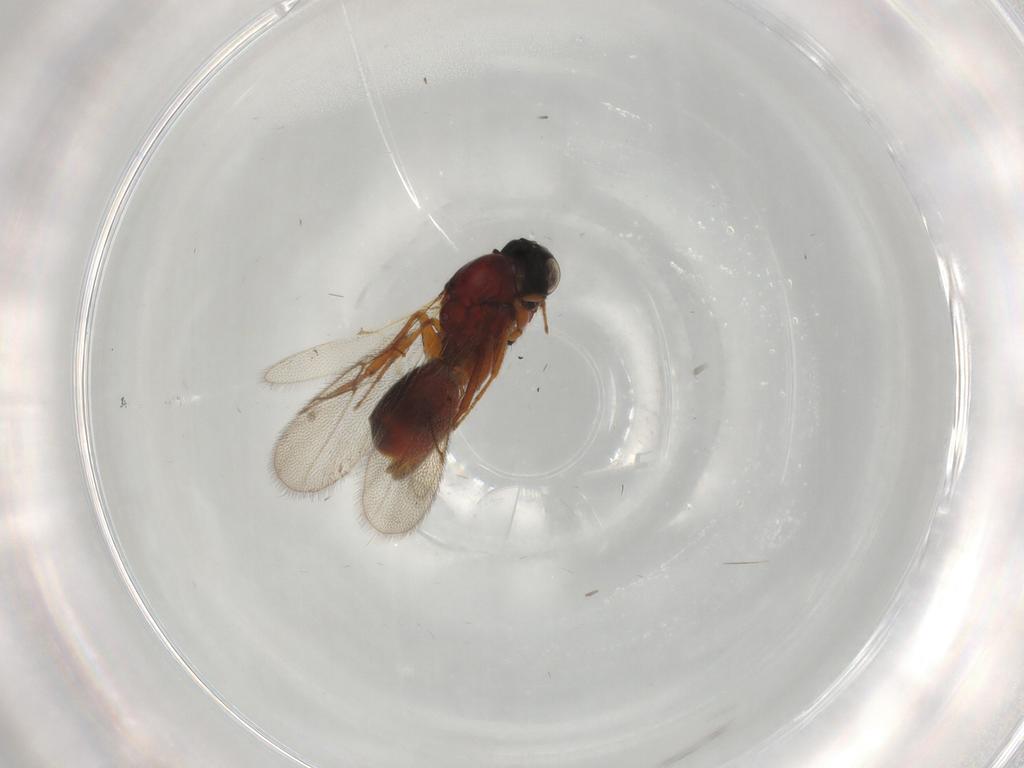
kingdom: Animalia
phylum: Arthropoda
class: Insecta
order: Hymenoptera
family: Figitidae
